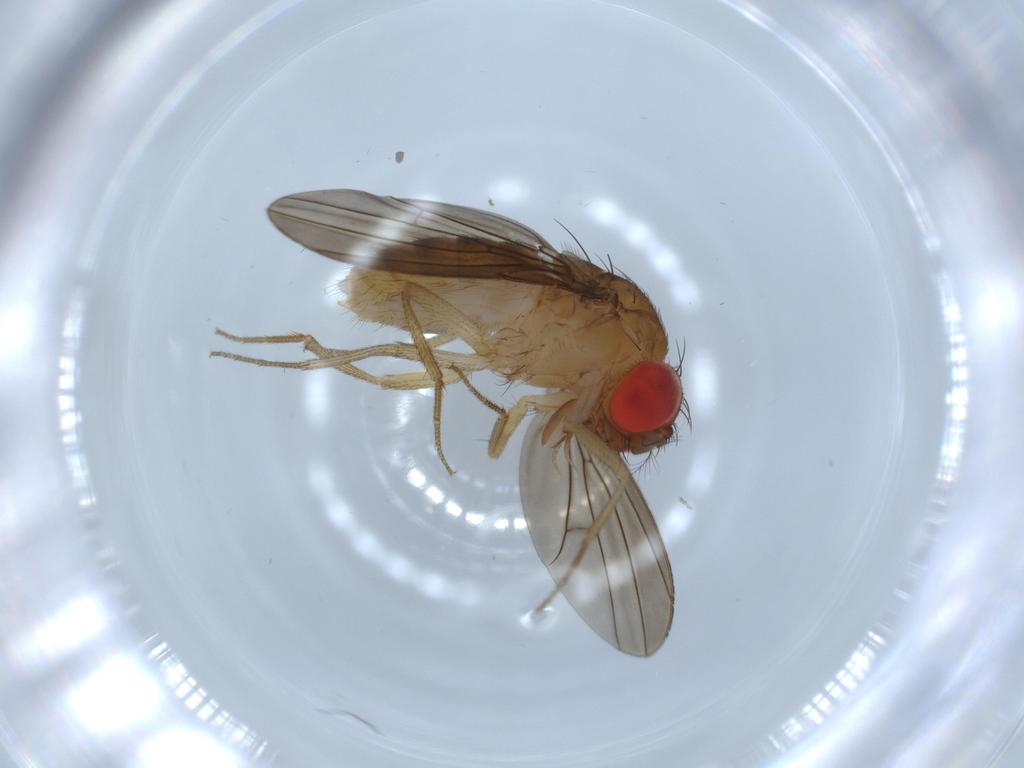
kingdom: Animalia
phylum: Arthropoda
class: Insecta
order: Diptera
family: Drosophilidae
